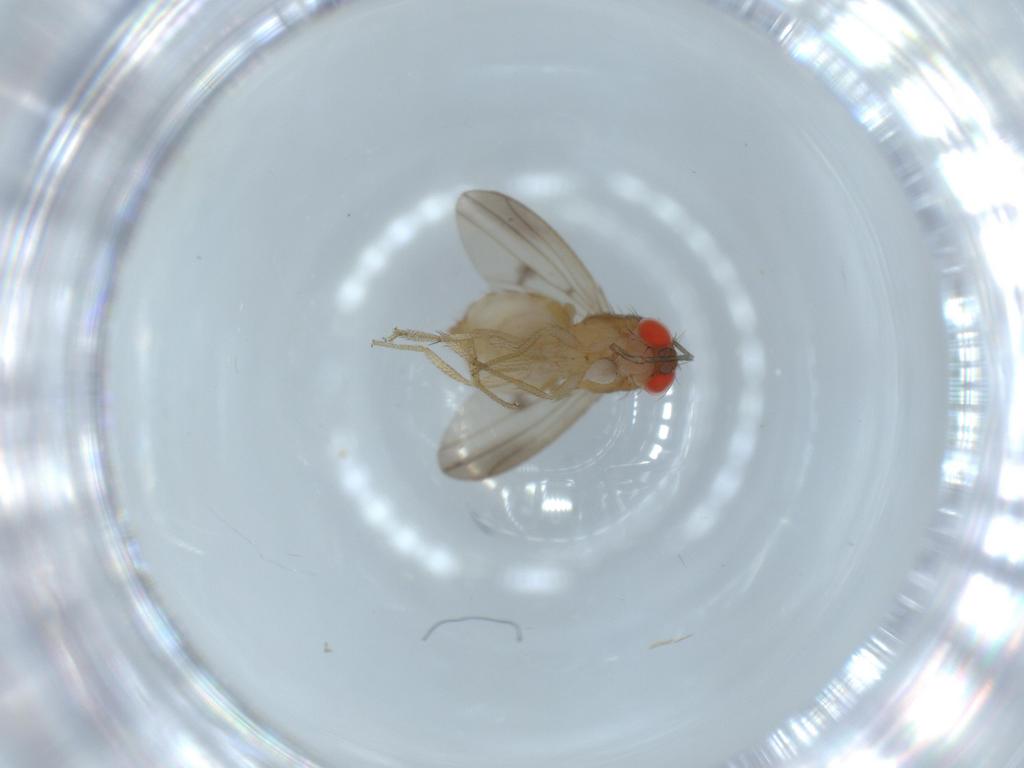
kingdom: Animalia
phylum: Arthropoda
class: Insecta
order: Diptera
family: Drosophilidae
